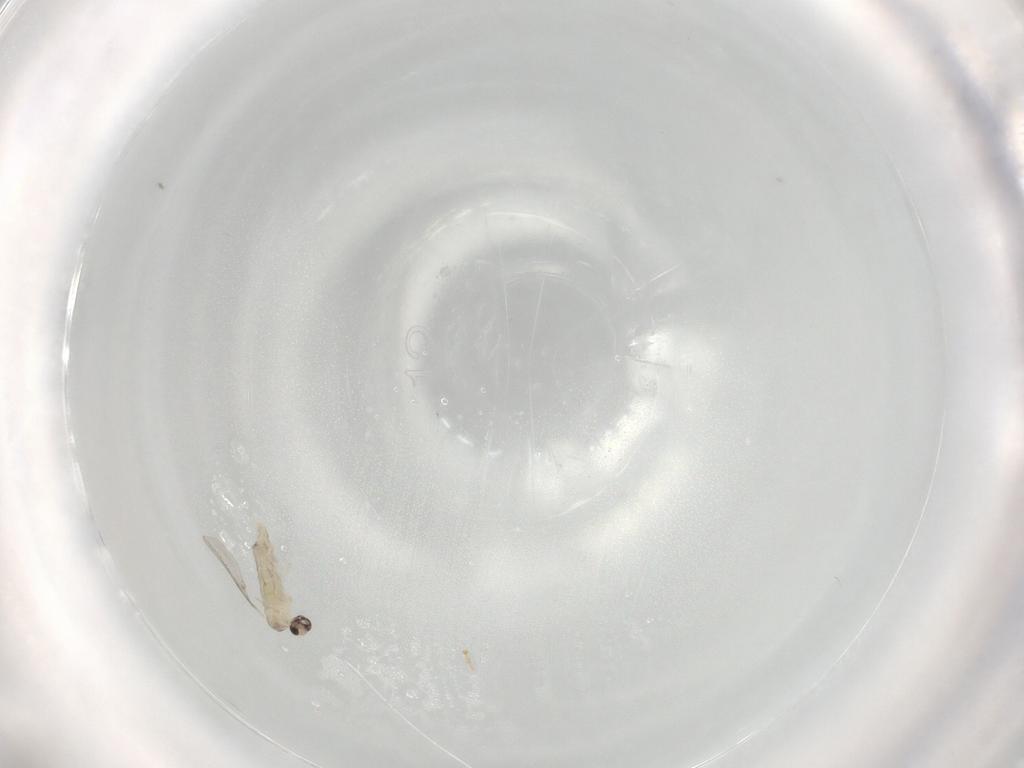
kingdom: Animalia
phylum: Arthropoda
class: Insecta
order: Diptera
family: Cecidomyiidae
